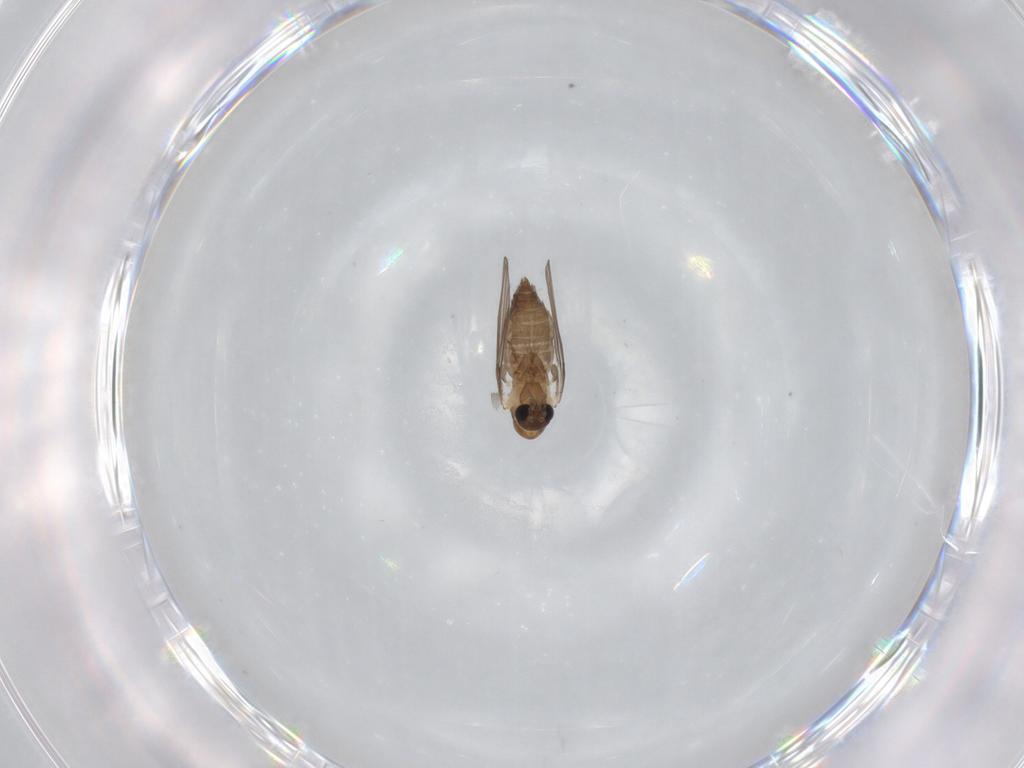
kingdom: Animalia
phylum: Arthropoda
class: Insecta
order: Diptera
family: Psychodidae
